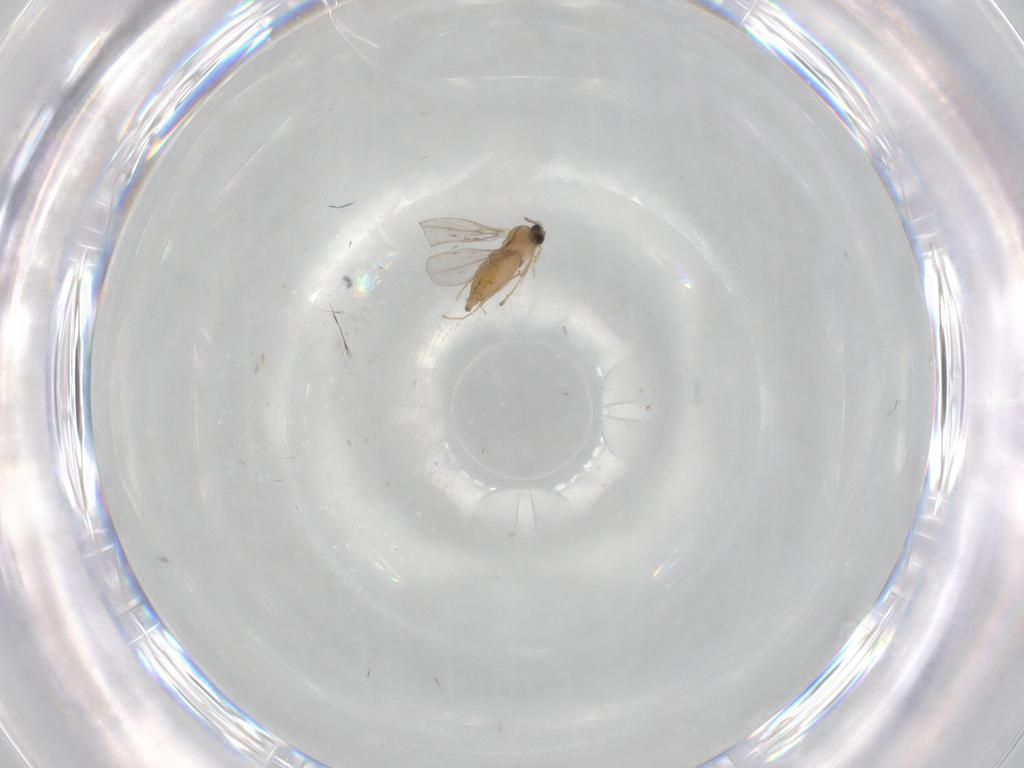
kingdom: Animalia
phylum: Arthropoda
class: Insecta
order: Diptera
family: Cecidomyiidae
